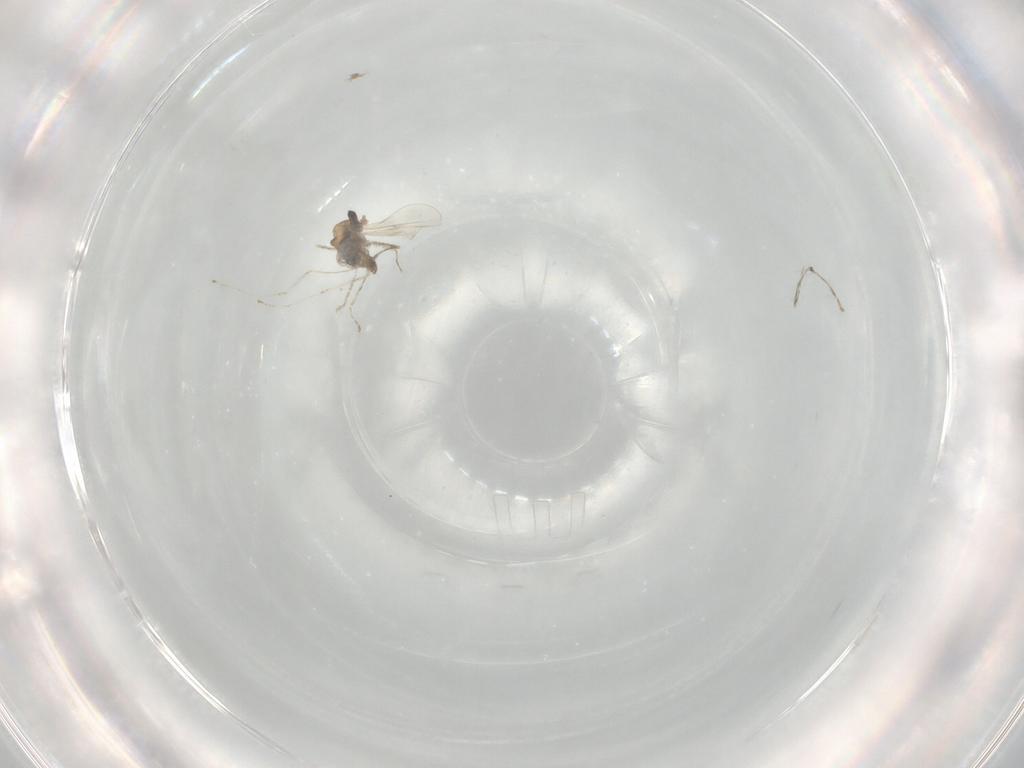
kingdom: Animalia
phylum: Arthropoda
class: Insecta
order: Diptera
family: Cecidomyiidae
